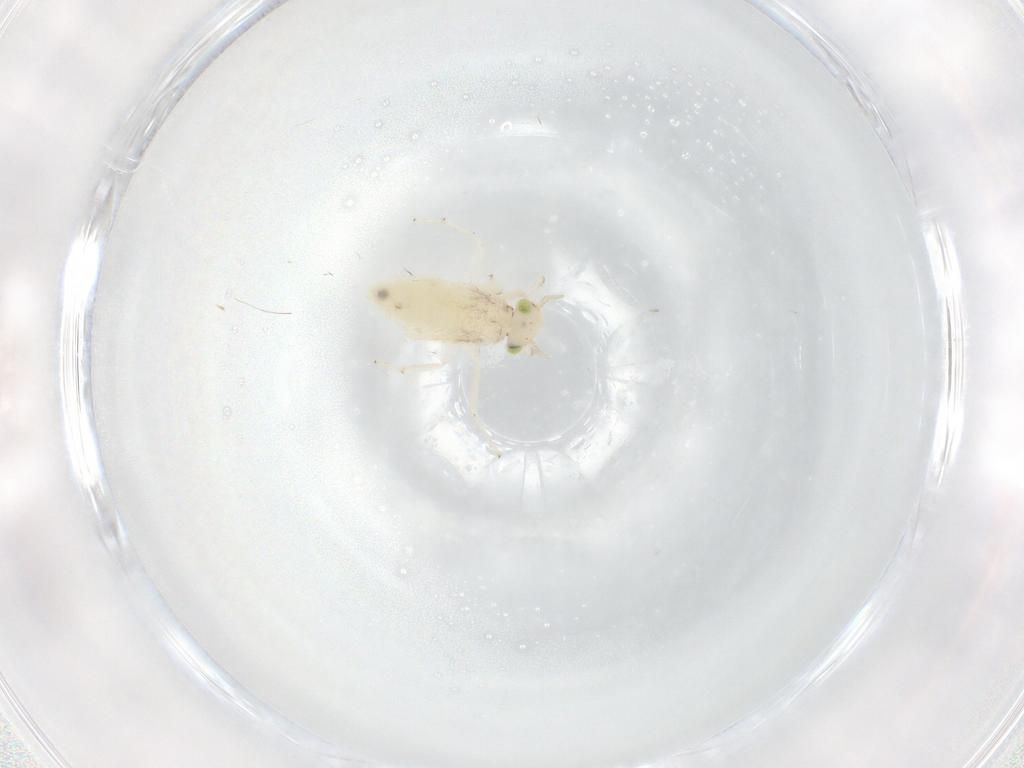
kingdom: Animalia
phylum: Arthropoda
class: Insecta
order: Psocodea
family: Lepidopsocidae
